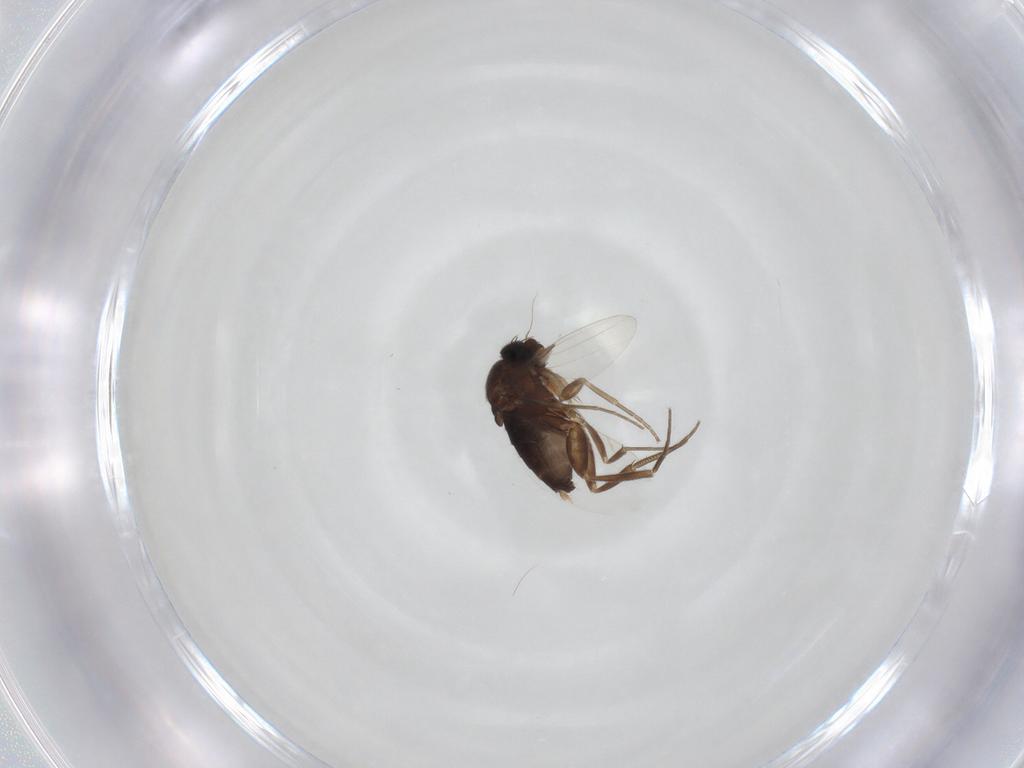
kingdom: Animalia
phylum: Arthropoda
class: Insecta
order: Diptera
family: Phoridae
